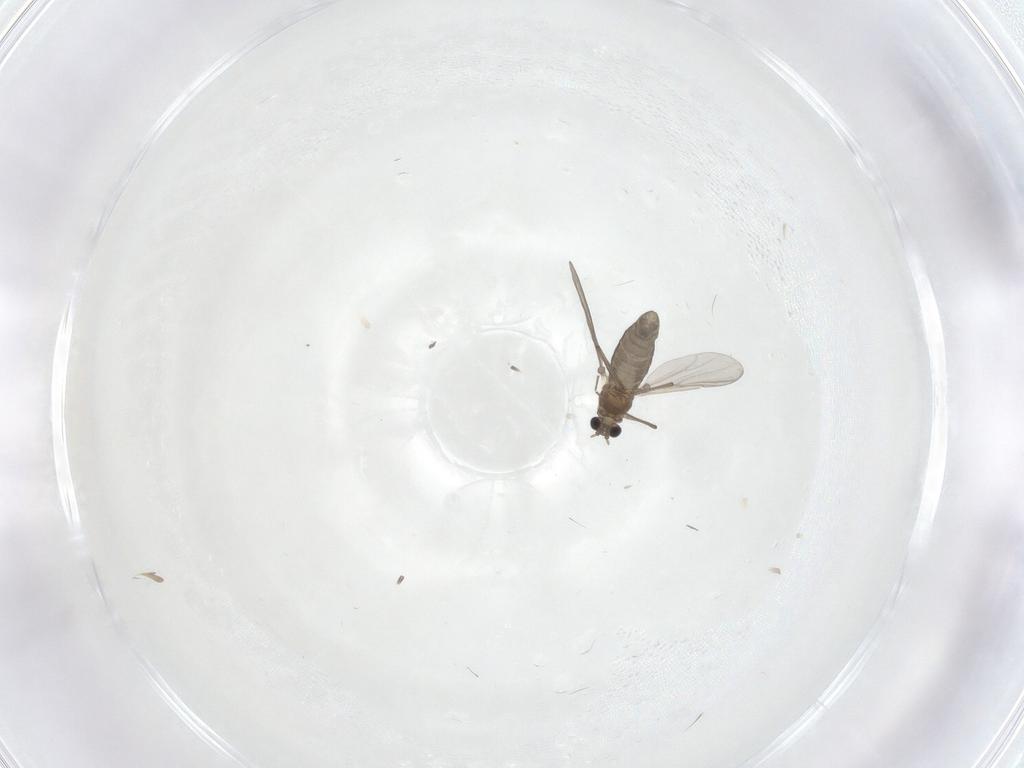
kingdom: Animalia
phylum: Arthropoda
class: Insecta
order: Diptera
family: Chironomidae
